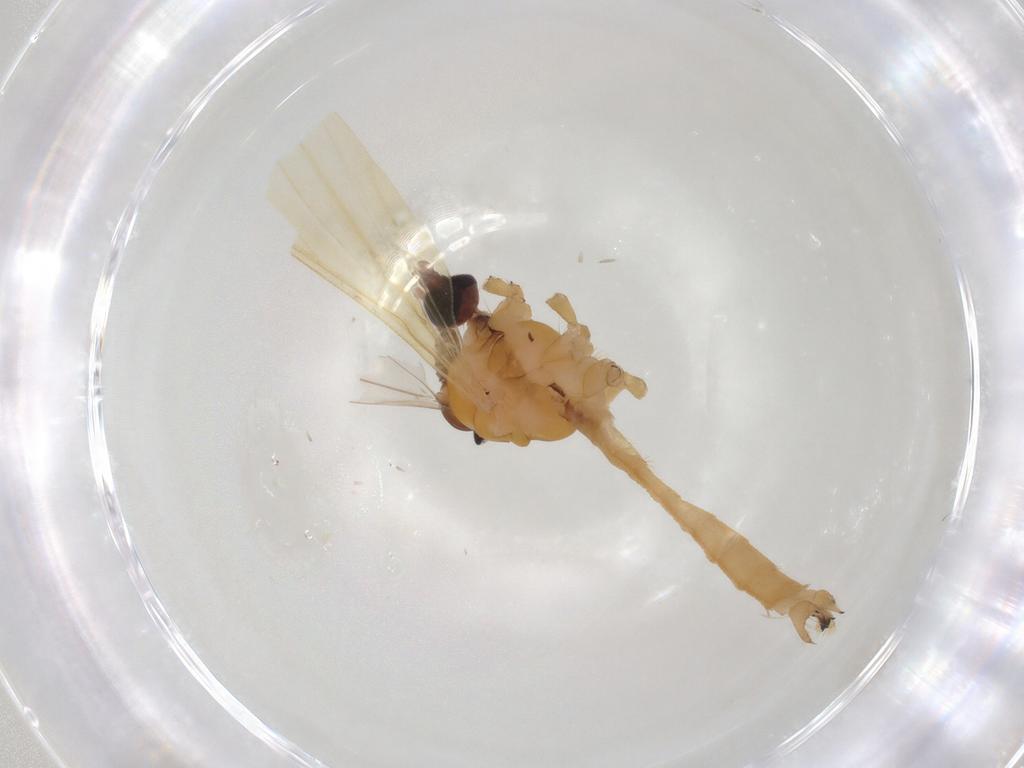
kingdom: Animalia
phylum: Arthropoda
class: Insecta
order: Diptera
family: Limoniidae
